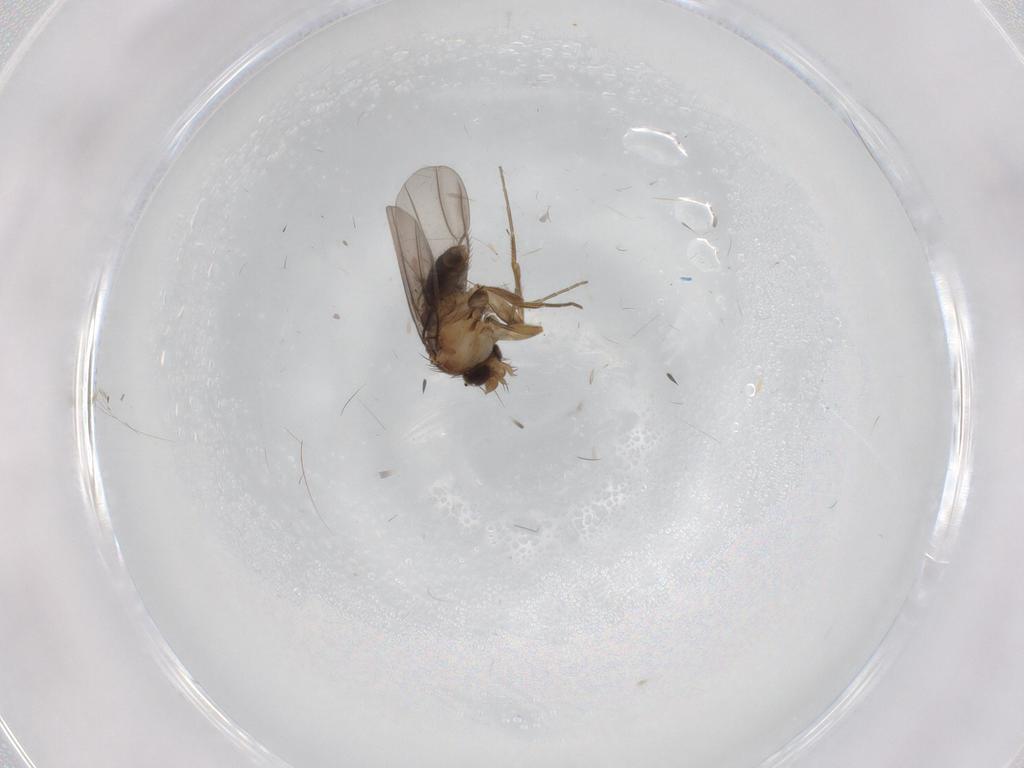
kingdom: Animalia
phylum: Arthropoda
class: Insecta
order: Diptera
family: Phoridae
